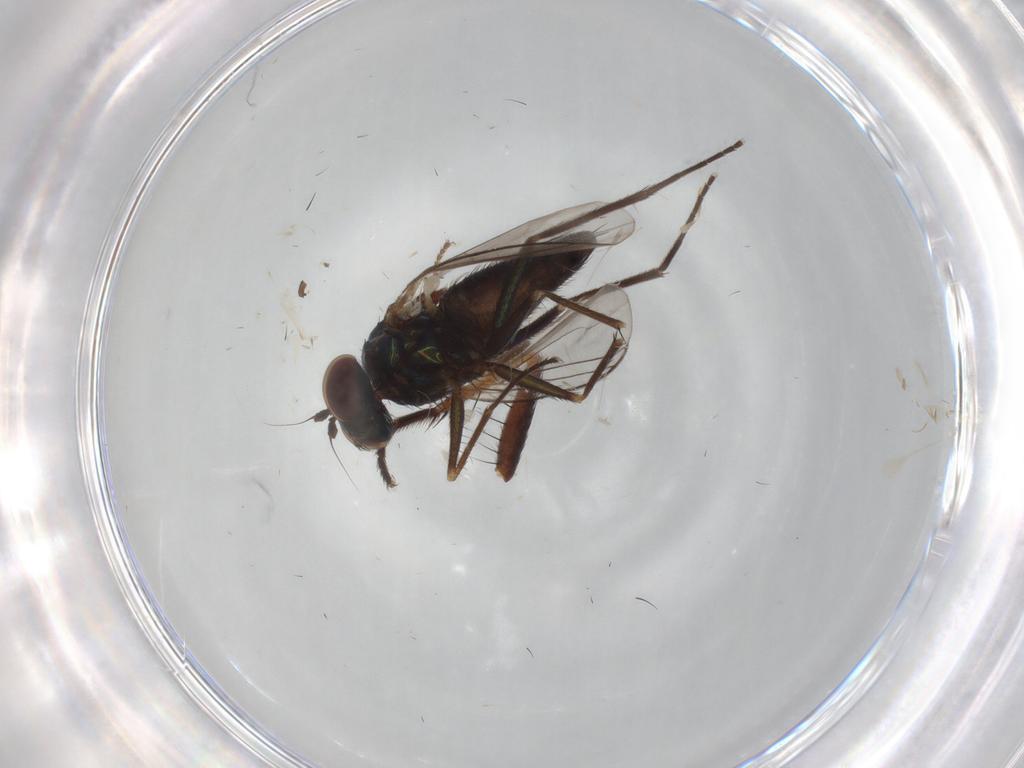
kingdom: Animalia
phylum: Arthropoda
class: Insecta
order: Diptera
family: Dolichopodidae
